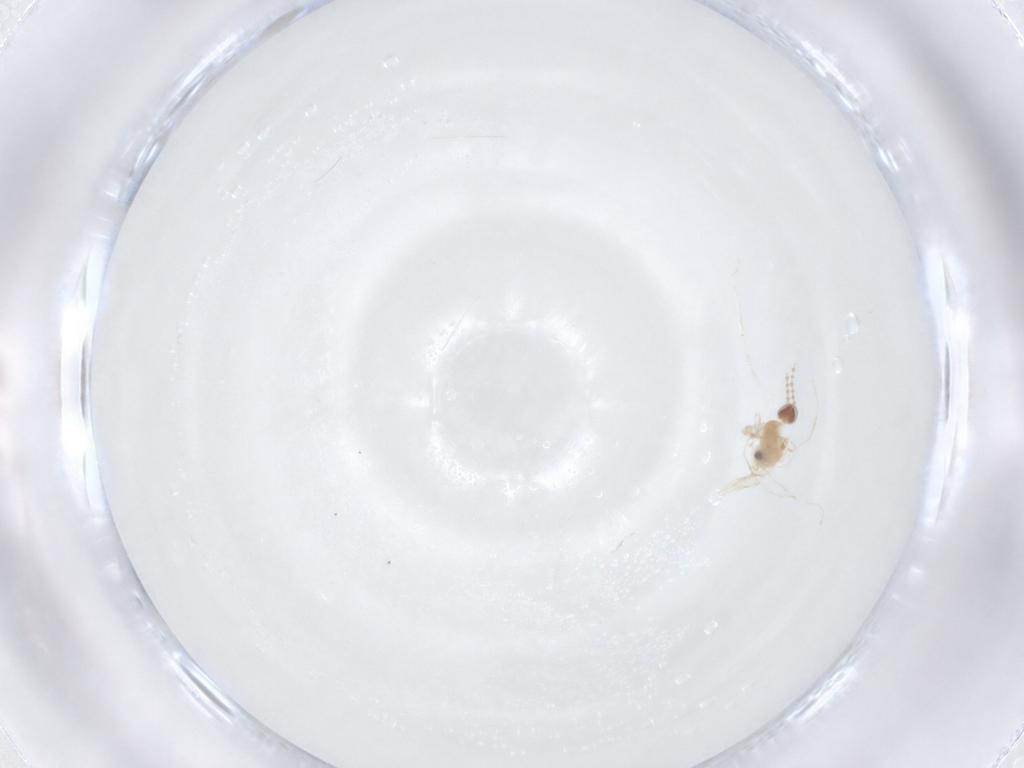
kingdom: Animalia
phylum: Arthropoda
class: Insecta
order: Diptera
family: Cecidomyiidae
